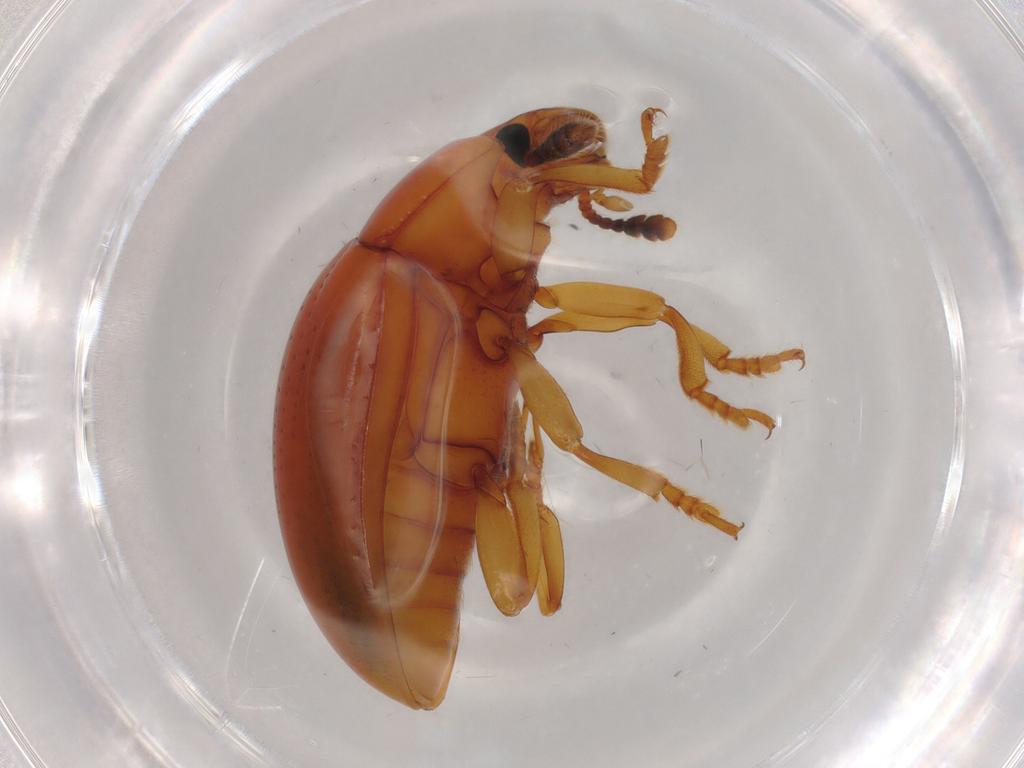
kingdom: Animalia
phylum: Arthropoda
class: Insecta
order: Coleoptera
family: Erotylidae
